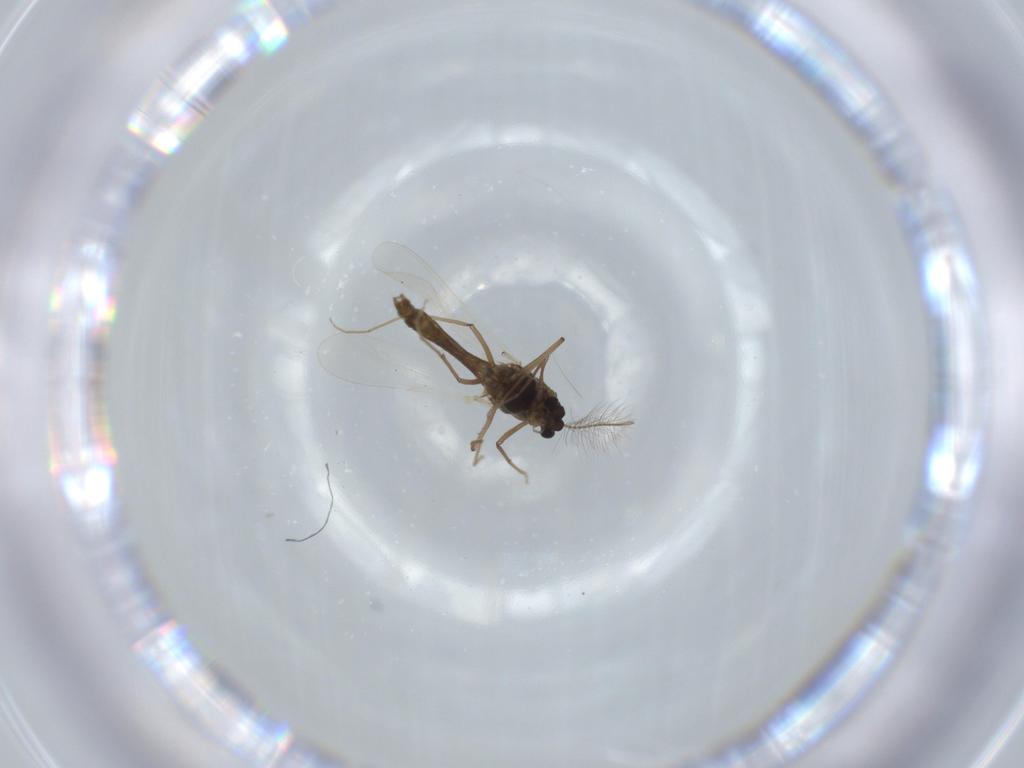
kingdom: Animalia
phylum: Arthropoda
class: Insecta
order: Diptera
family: Chironomidae
